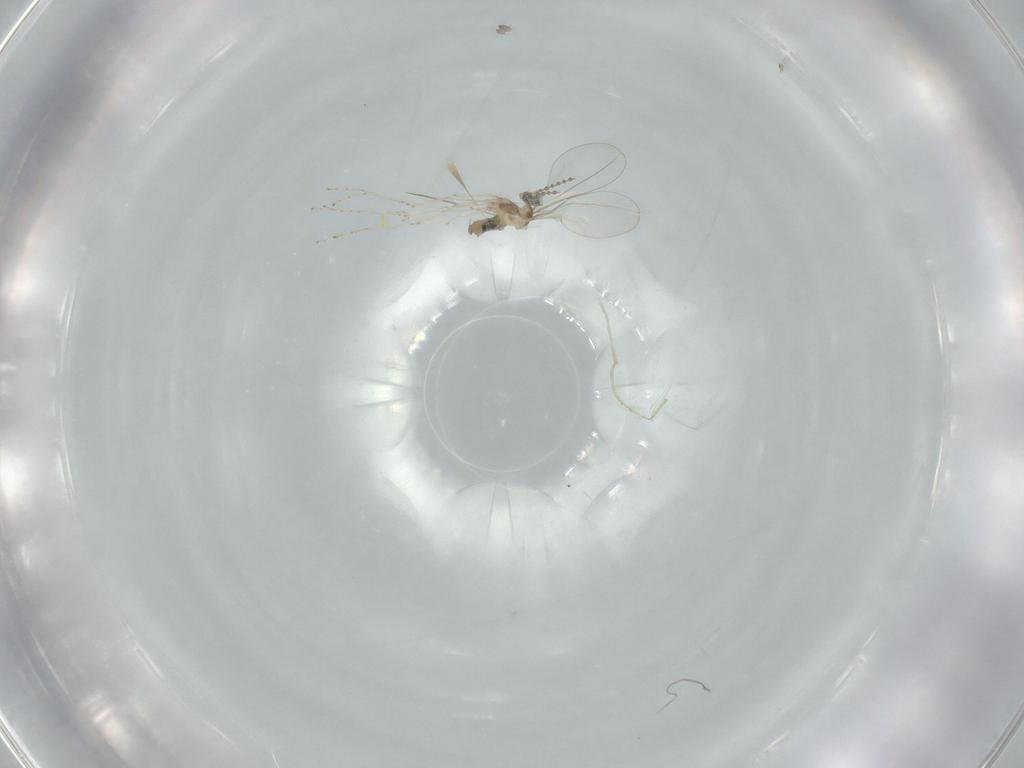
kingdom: Animalia
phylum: Arthropoda
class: Insecta
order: Diptera
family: Cecidomyiidae
